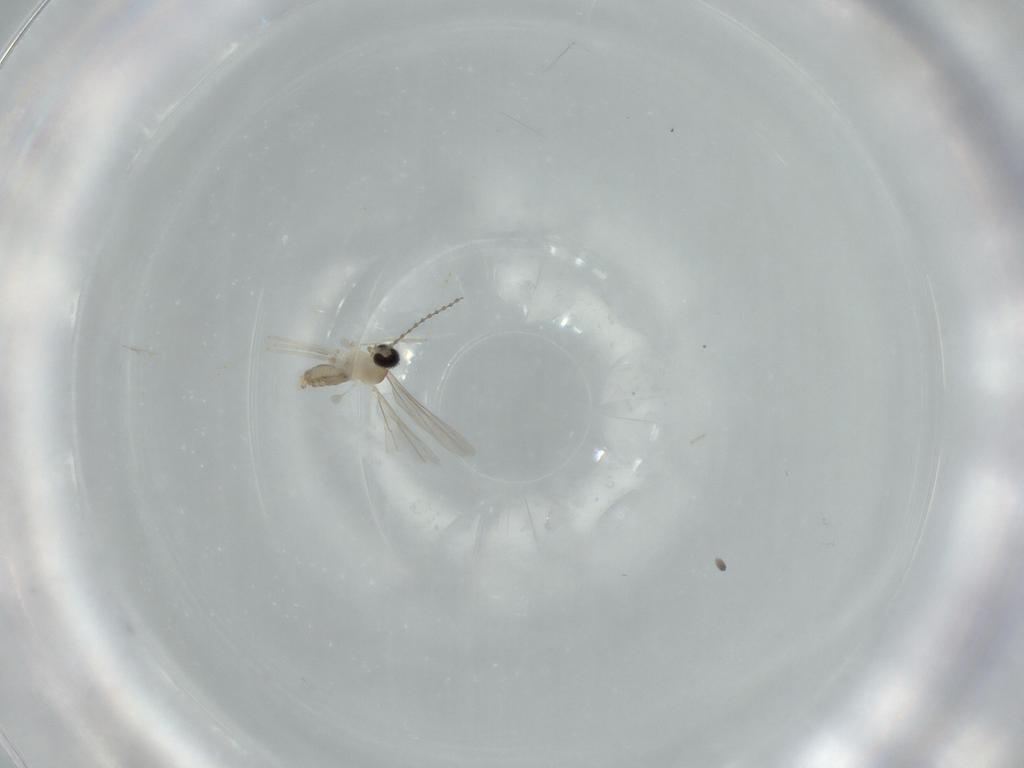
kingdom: Animalia
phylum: Arthropoda
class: Insecta
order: Diptera
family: Cecidomyiidae
